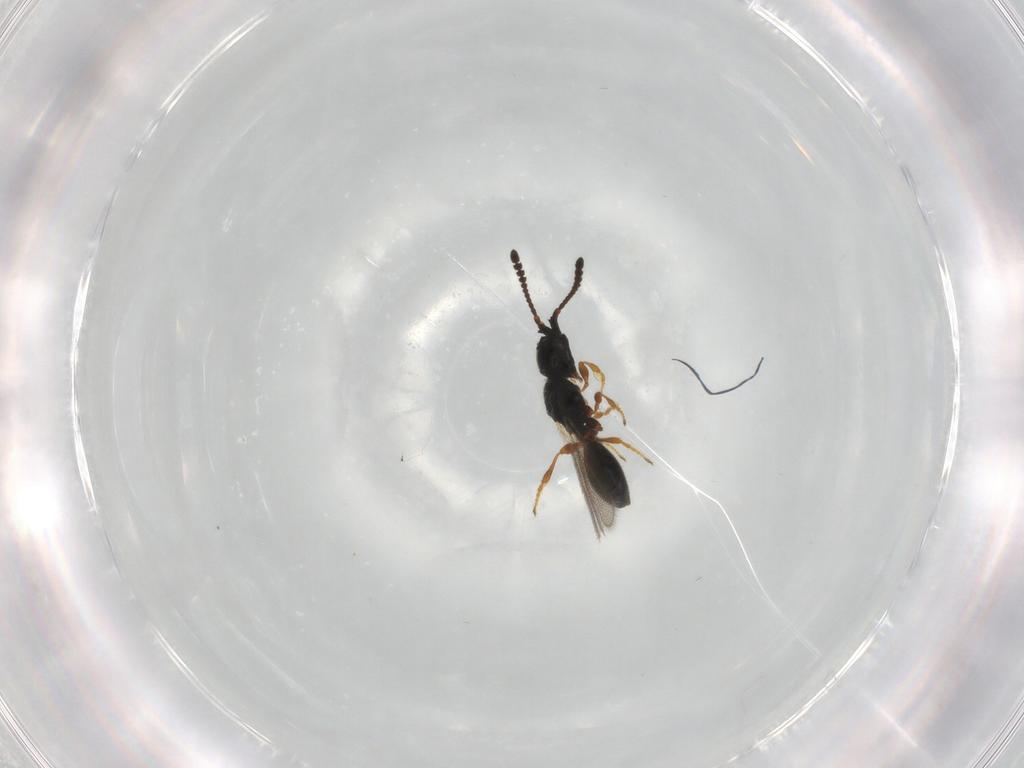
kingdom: Animalia
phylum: Arthropoda
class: Insecta
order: Hymenoptera
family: Diapriidae
